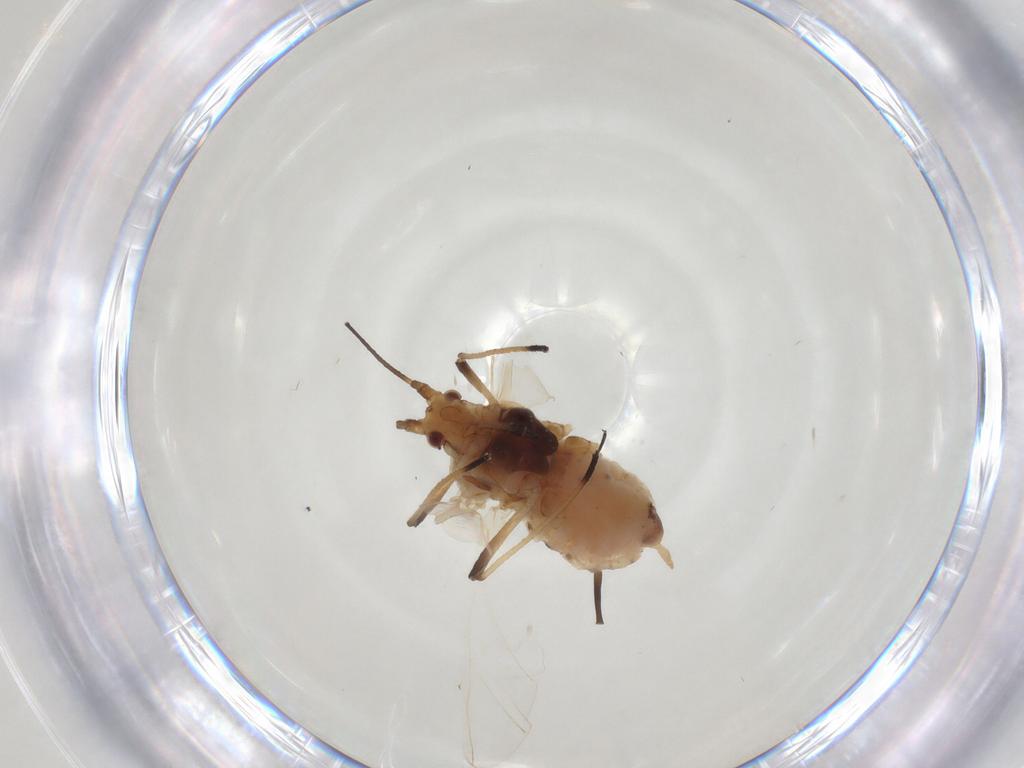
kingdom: Animalia
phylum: Arthropoda
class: Insecta
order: Hemiptera
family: Aphididae
